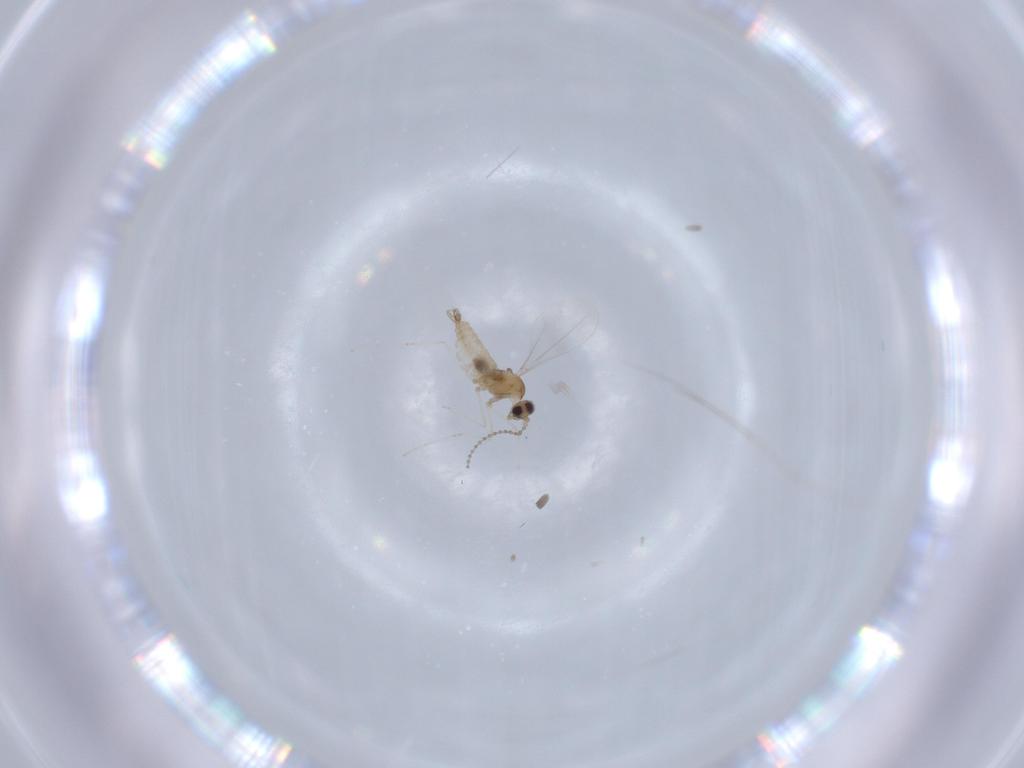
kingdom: Animalia
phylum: Arthropoda
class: Insecta
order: Diptera
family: Cecidomyiidae
